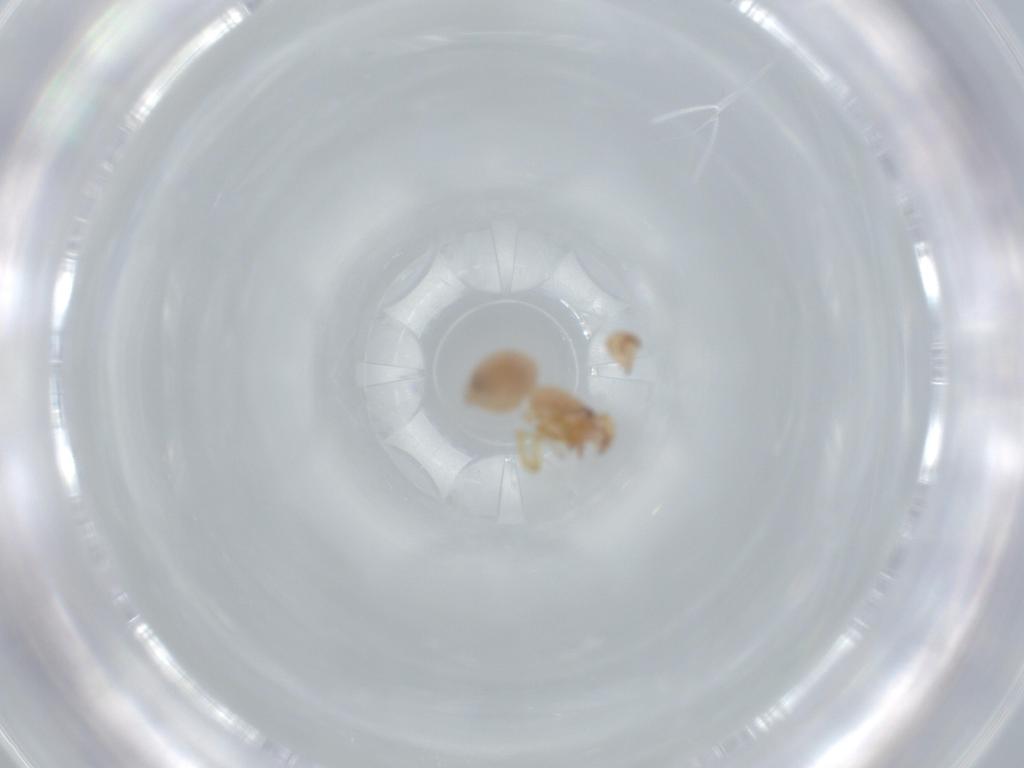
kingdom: Animalia
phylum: Arthropoda
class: Arachnida
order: Araneae
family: Oonopidae
